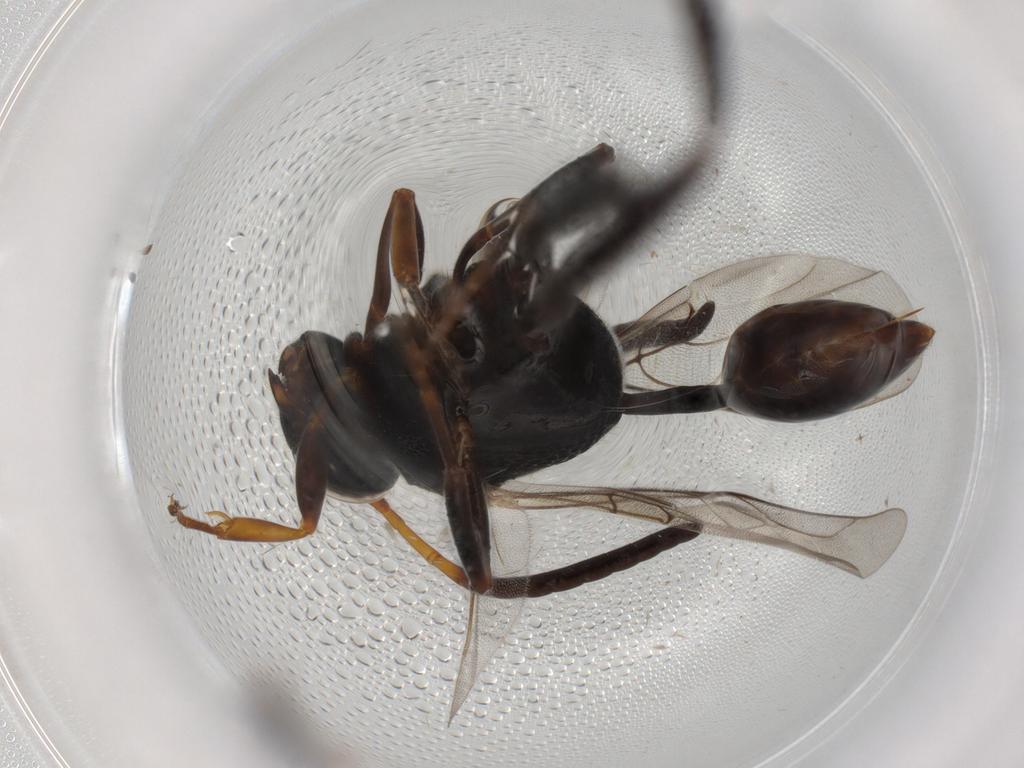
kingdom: Animalia
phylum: Arthropoda
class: Insecta
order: Hymenoptera
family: Evaniidae
